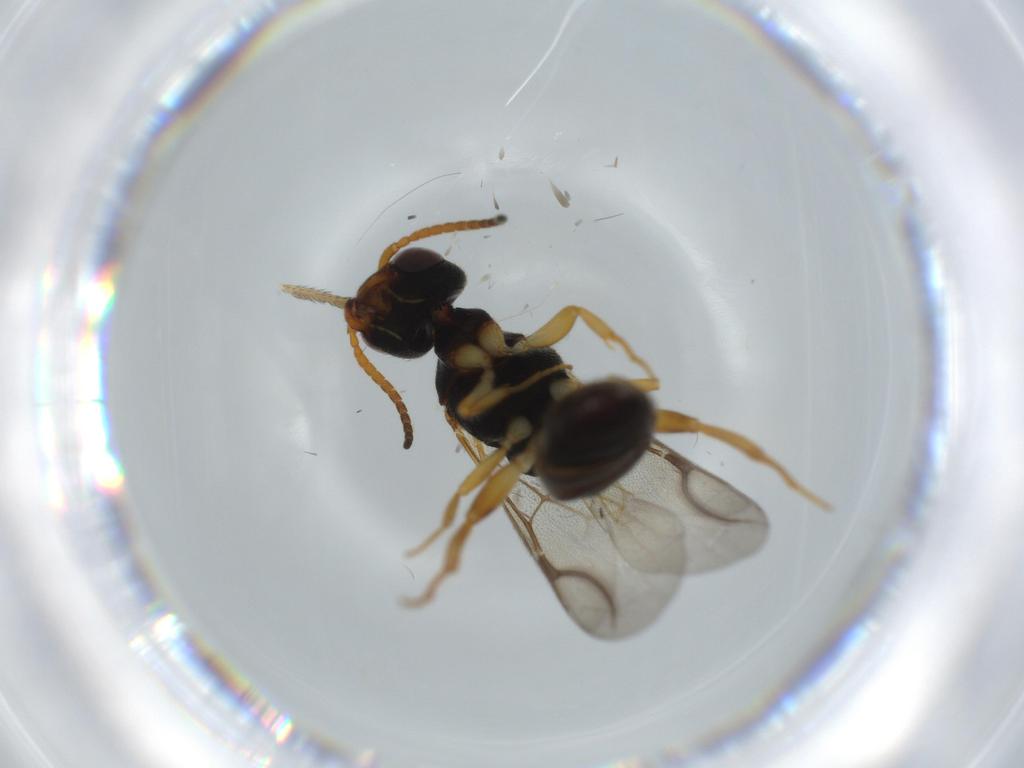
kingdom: Animalia
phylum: Arthropoda
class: Insecta
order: Hymenoptera
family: Bethylidae
